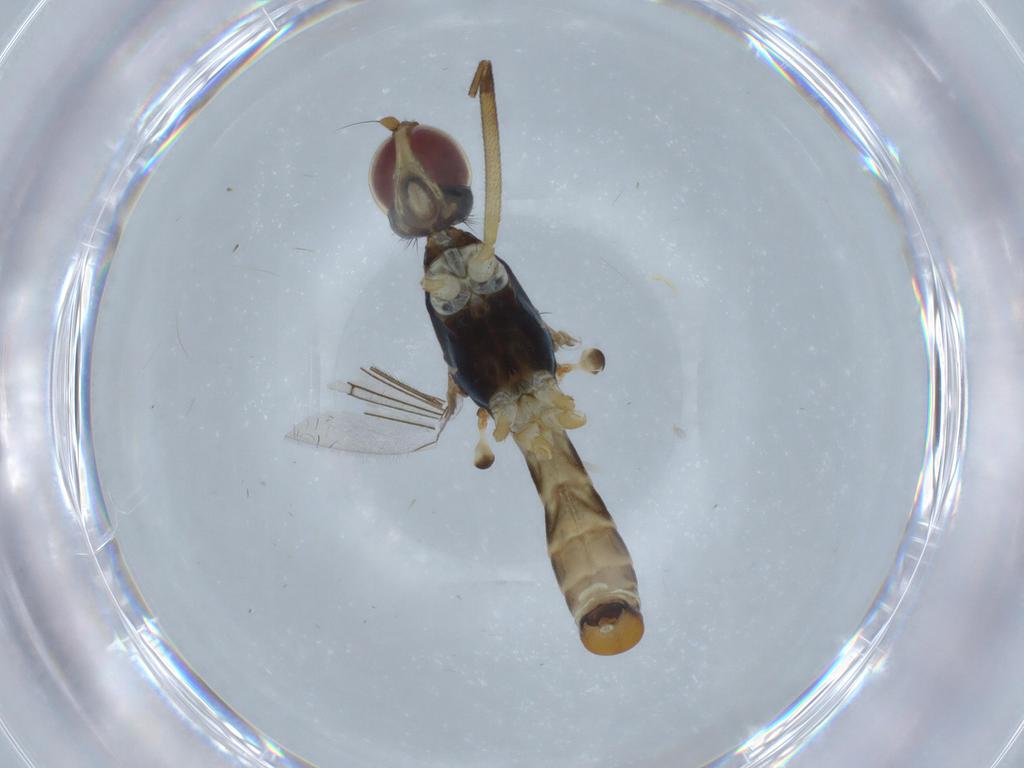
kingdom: Animalia
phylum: Arthropoda
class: Insecta
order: Diptera
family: Micropezidae
